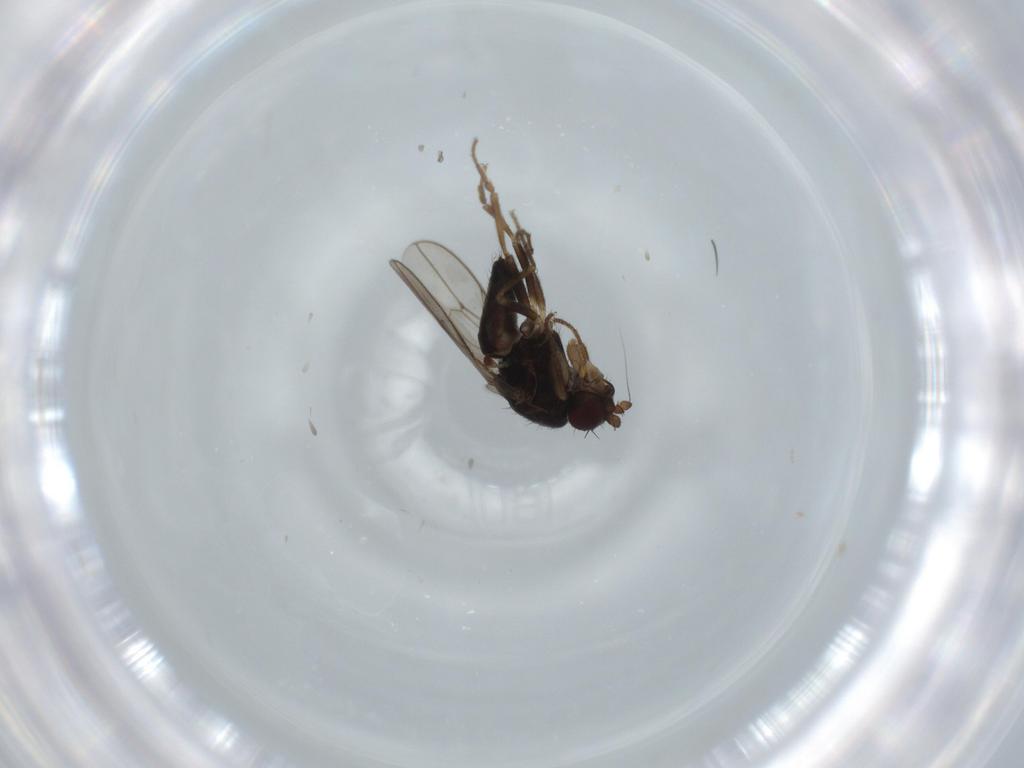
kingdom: Animalia
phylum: Arthropoda
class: Insecta
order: Diptera
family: Sphaeroceridae
